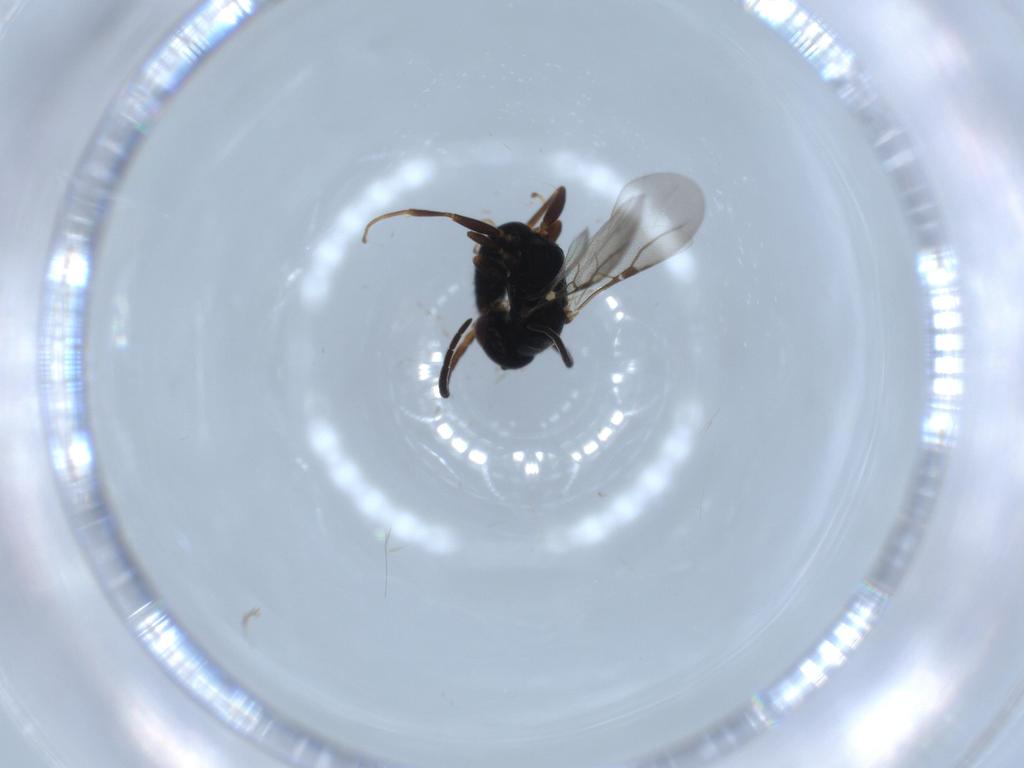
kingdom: Animalia
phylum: Arthropoda
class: Insecta
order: Hymenoptera
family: Bethylidae
